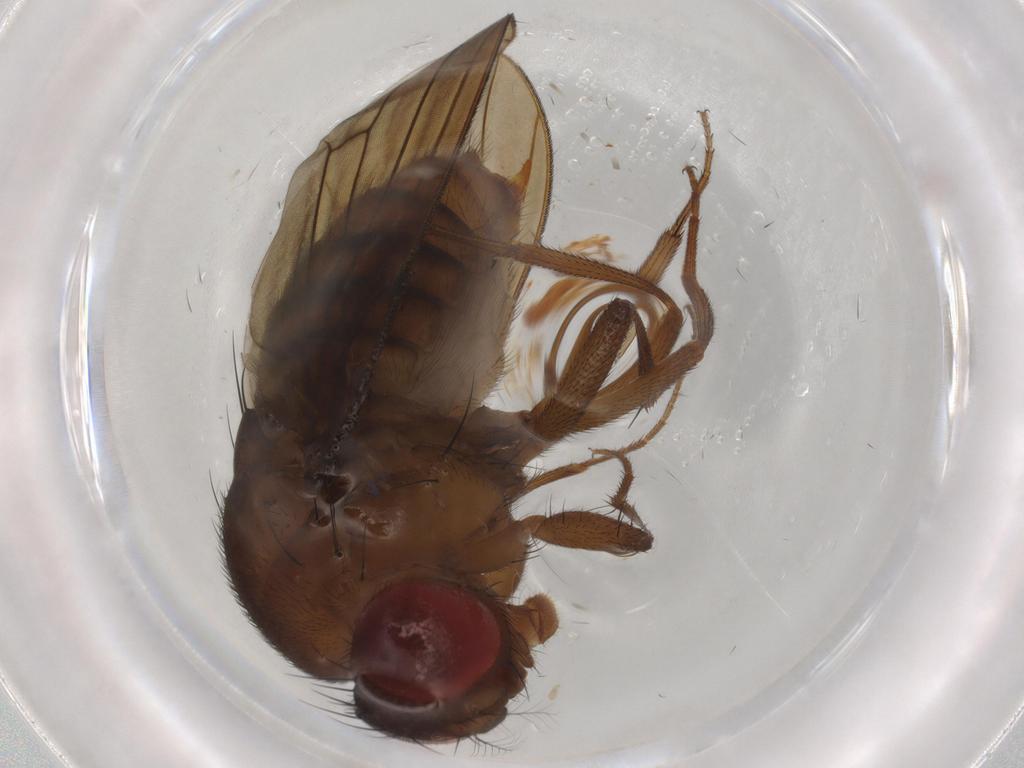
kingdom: Animalia
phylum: Arthropoda
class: Insecta
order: Diptera
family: Drosophilidae
